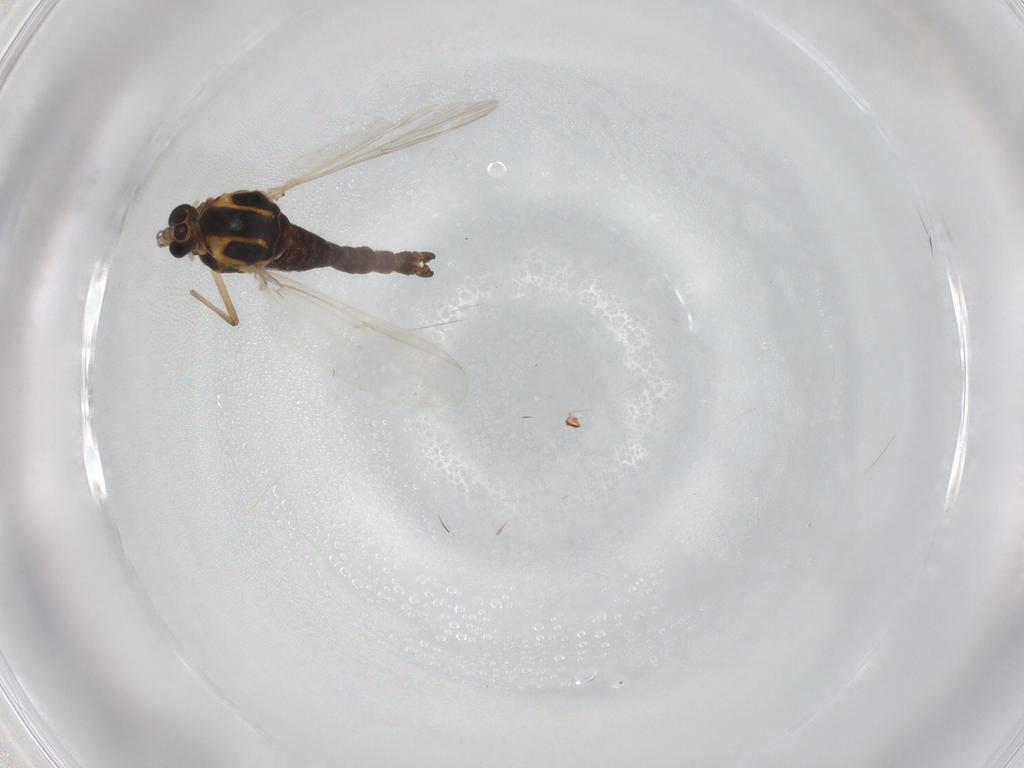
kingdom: Animalia
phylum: Arthropoda
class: Insecta
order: Diptera
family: Chironomidae
